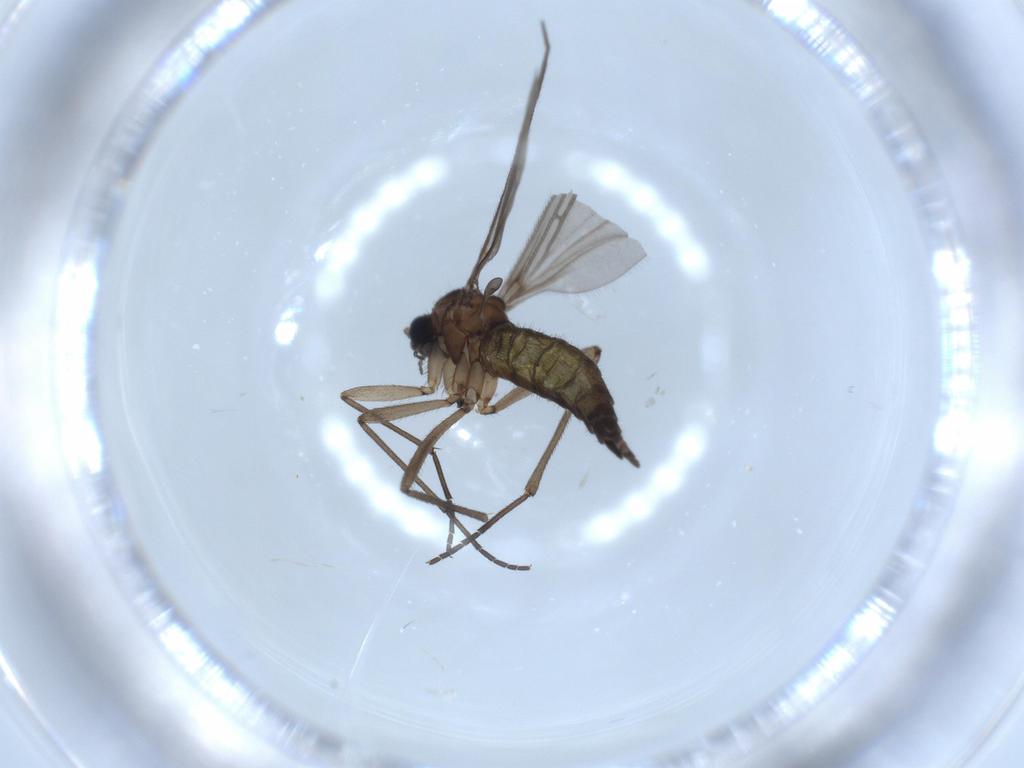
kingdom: Animalia
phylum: Arthropoda
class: Insecta
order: Diptera
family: Sciaridae
